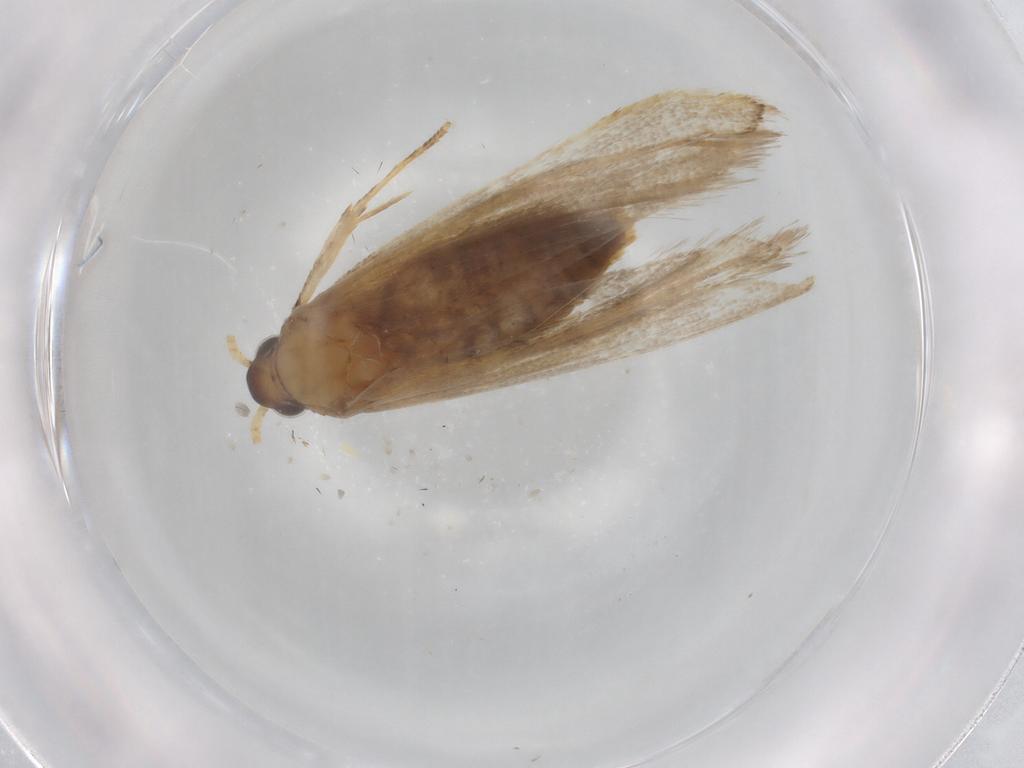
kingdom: Animalia
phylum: Arthropoda
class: Insecta
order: Lepidoptera
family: Lecithoceridae
